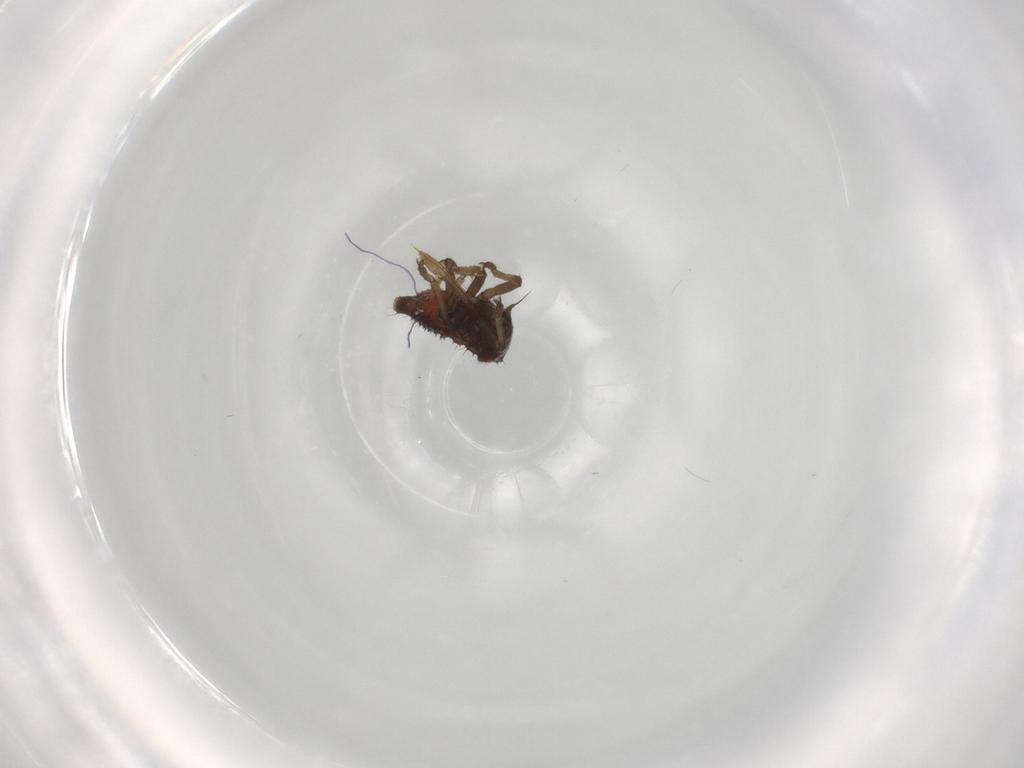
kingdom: Animalia
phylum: Arthropoda
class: Insecta
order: Hemiptera
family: Membracidae
